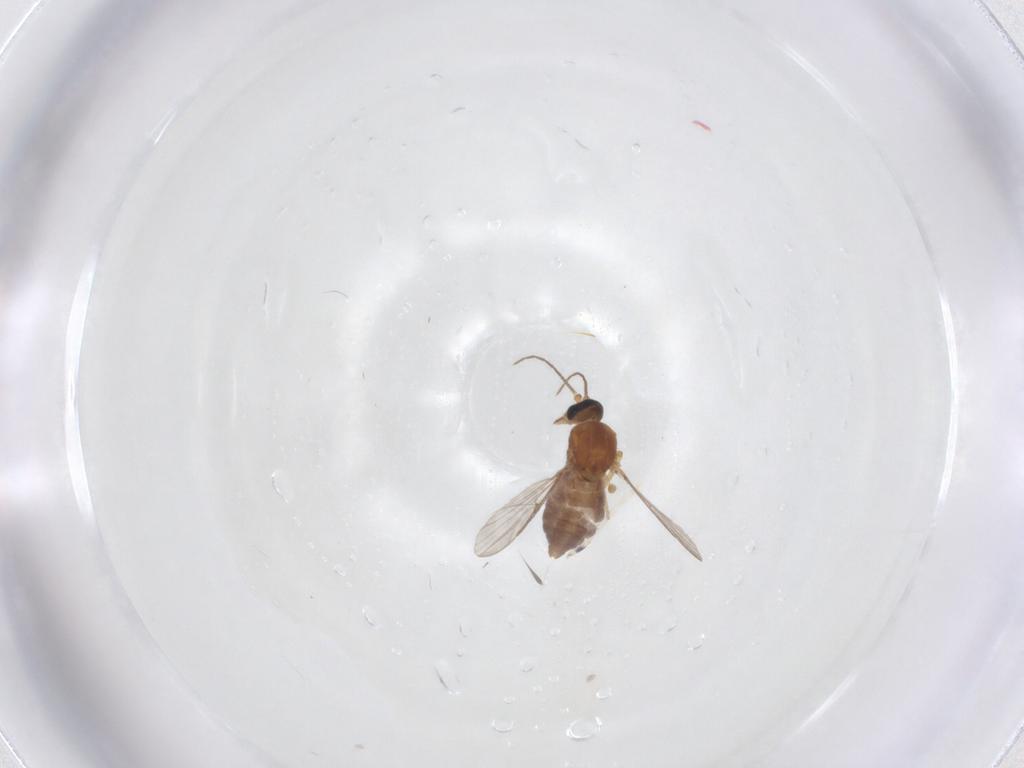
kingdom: Animalia
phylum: Arthropoda
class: Insecta
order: Diptera
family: Ceratopogonidae
